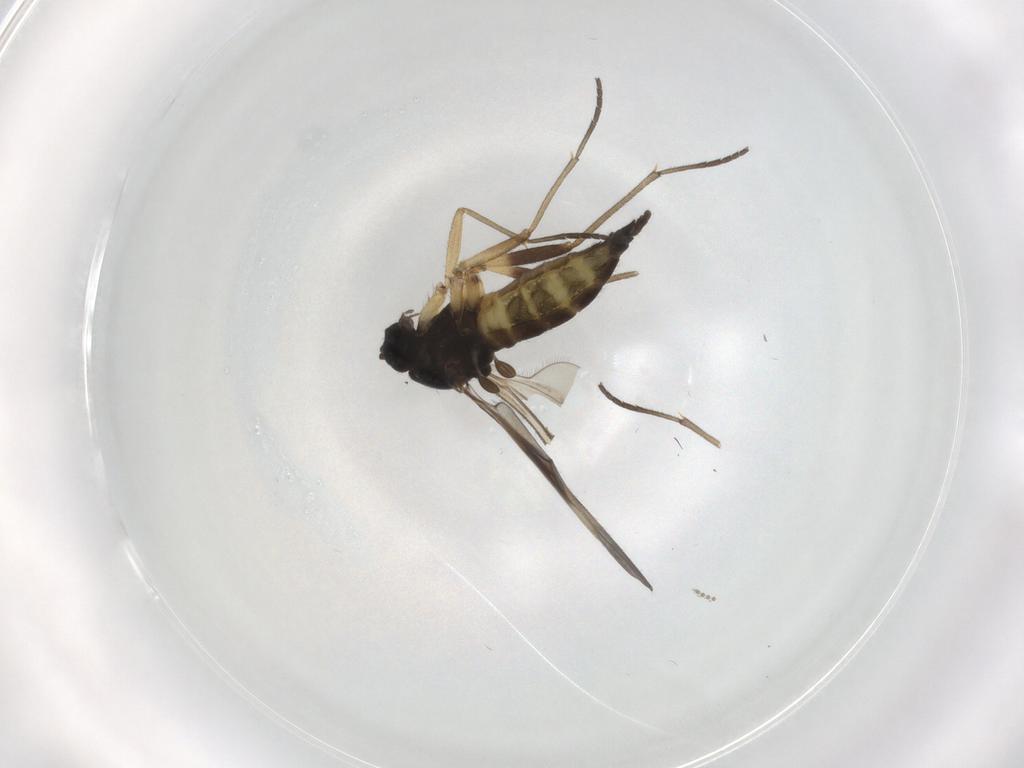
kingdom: Animalia
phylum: Arthropoda
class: Insecta
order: Diptera
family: Sciaridae
